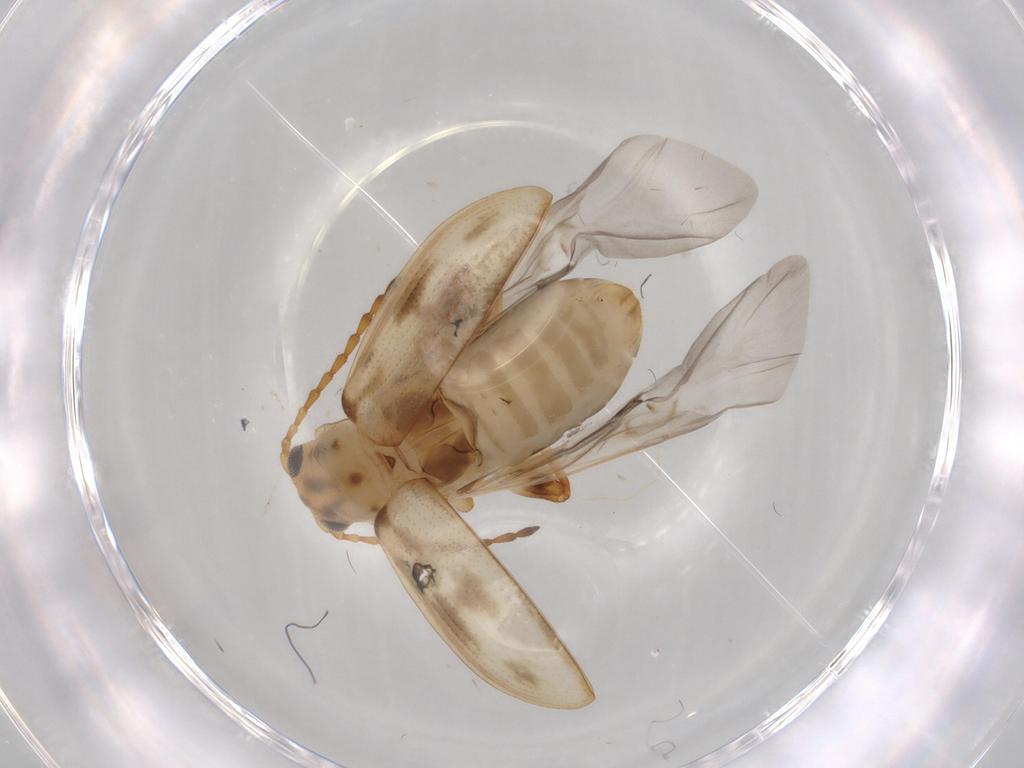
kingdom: Animalia
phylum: Arthropoda
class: Insecta
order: Coleoptera
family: Chrysomelidae
